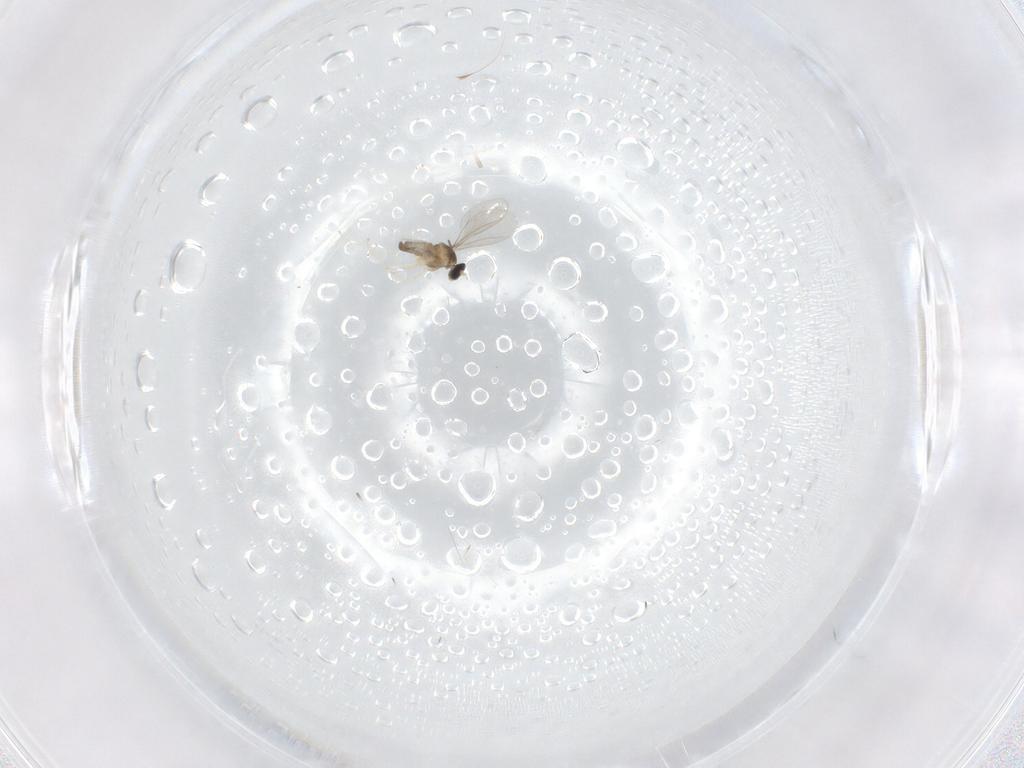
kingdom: Animalia
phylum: Arthropoda
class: Insecta
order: Diptera
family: Cecidomyiidae
